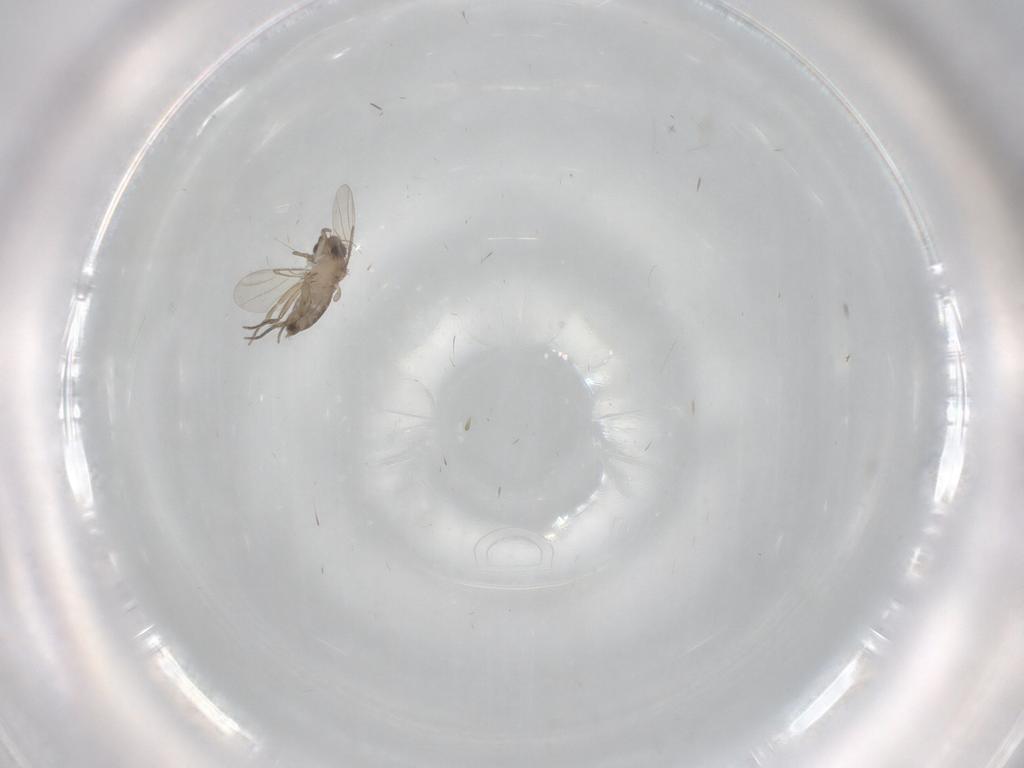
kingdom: Animalia
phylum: Arthropoda
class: Insecta
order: Diptera
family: Phoridae
